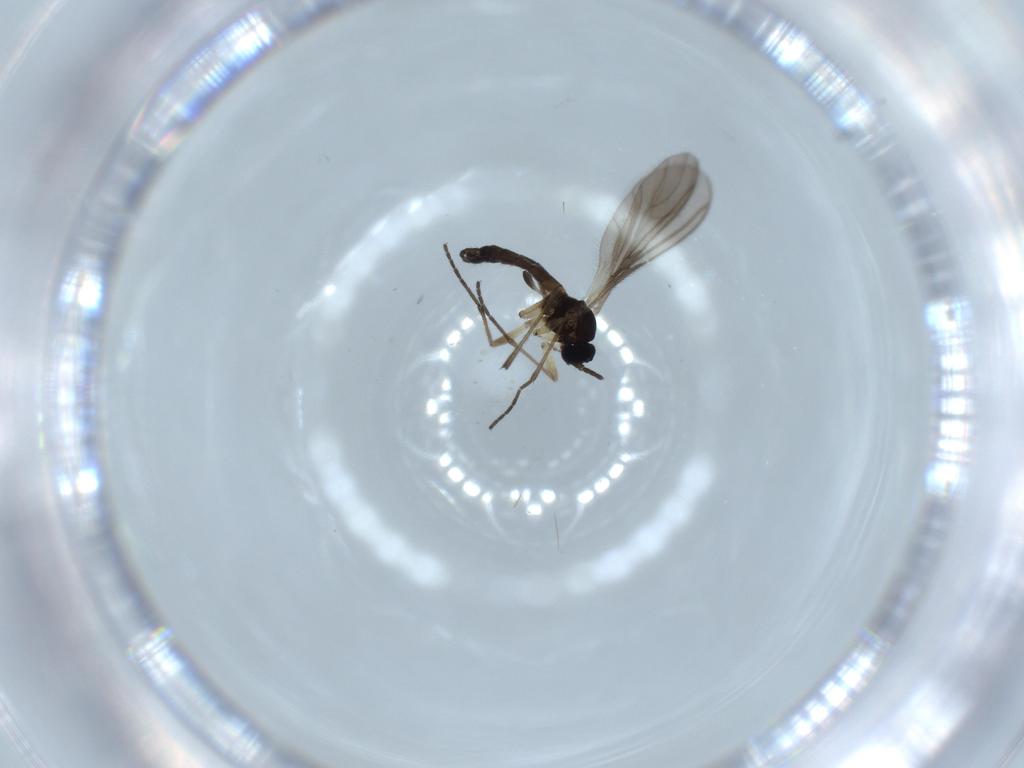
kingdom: Animalia
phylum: Arthropoda
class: Insecta
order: Diptera
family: Sciaridae
